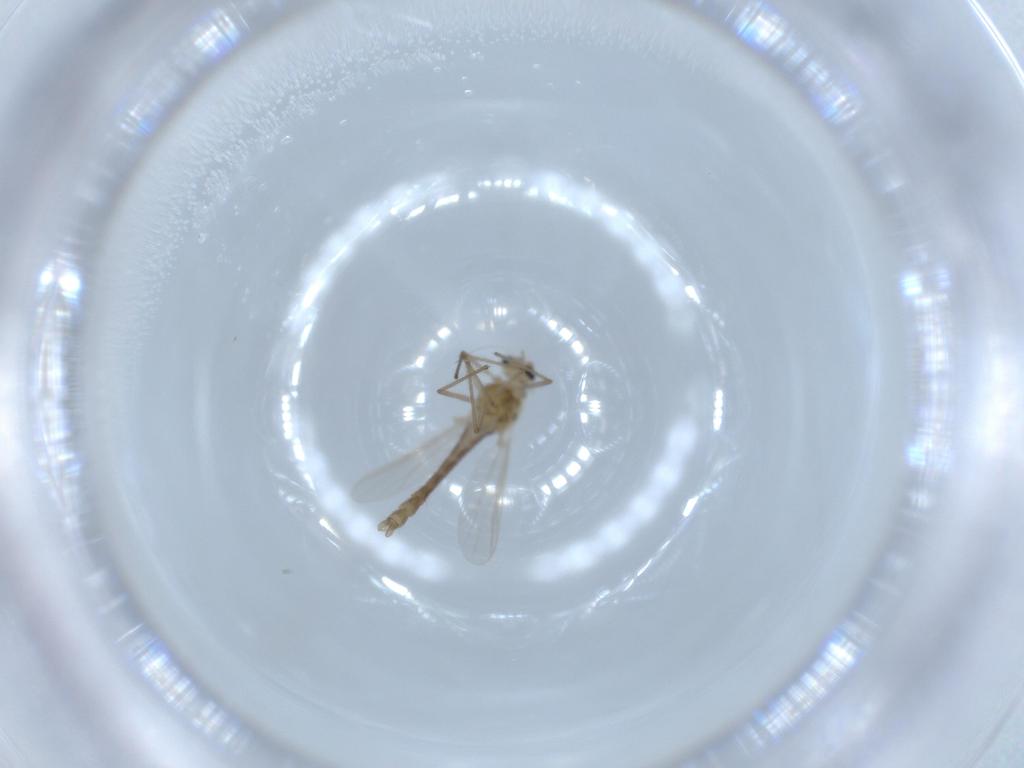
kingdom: Animalia
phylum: Arthropoda
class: Insecta
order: Diptera
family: Chironomidae
